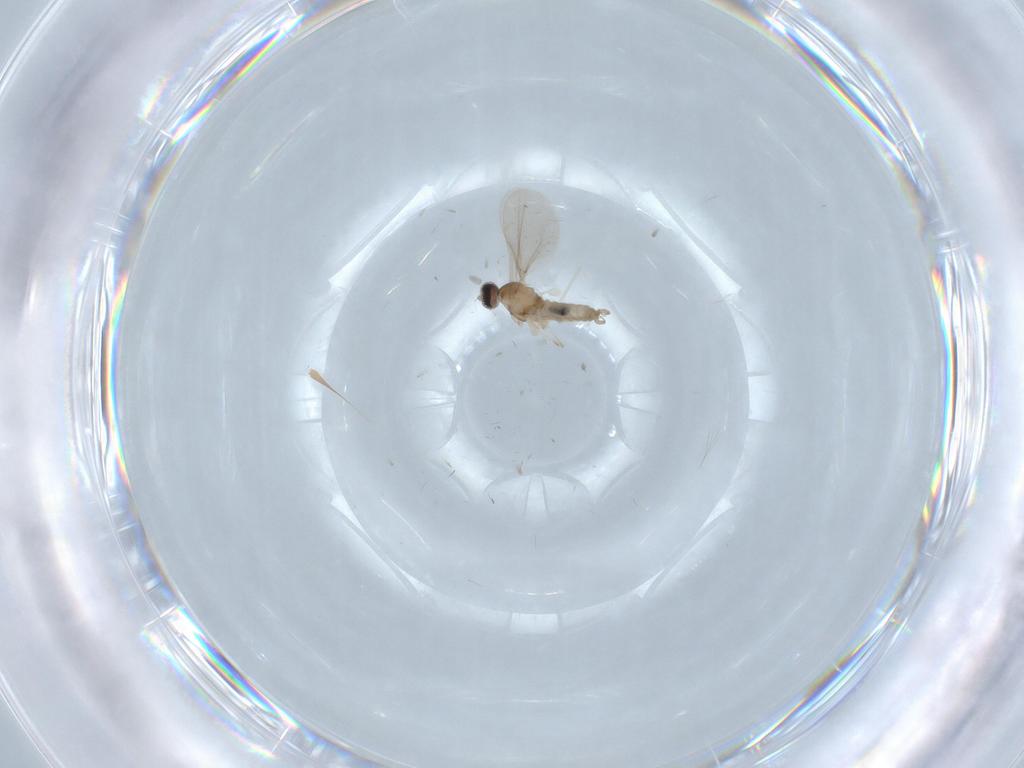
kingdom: Animalia
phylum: Arthropoda
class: Insecta
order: Diptera
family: Cecidomyiidae
